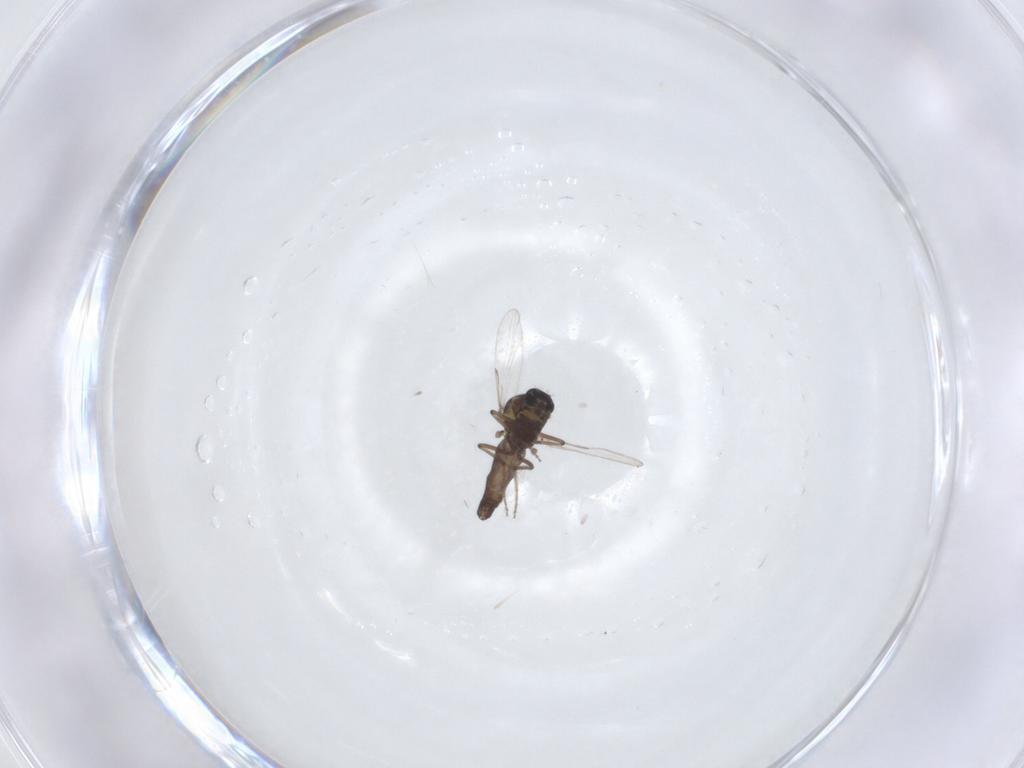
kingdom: Animalia
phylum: Arthropoda
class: Insecta
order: Diptera
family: Ceratopogonidae
